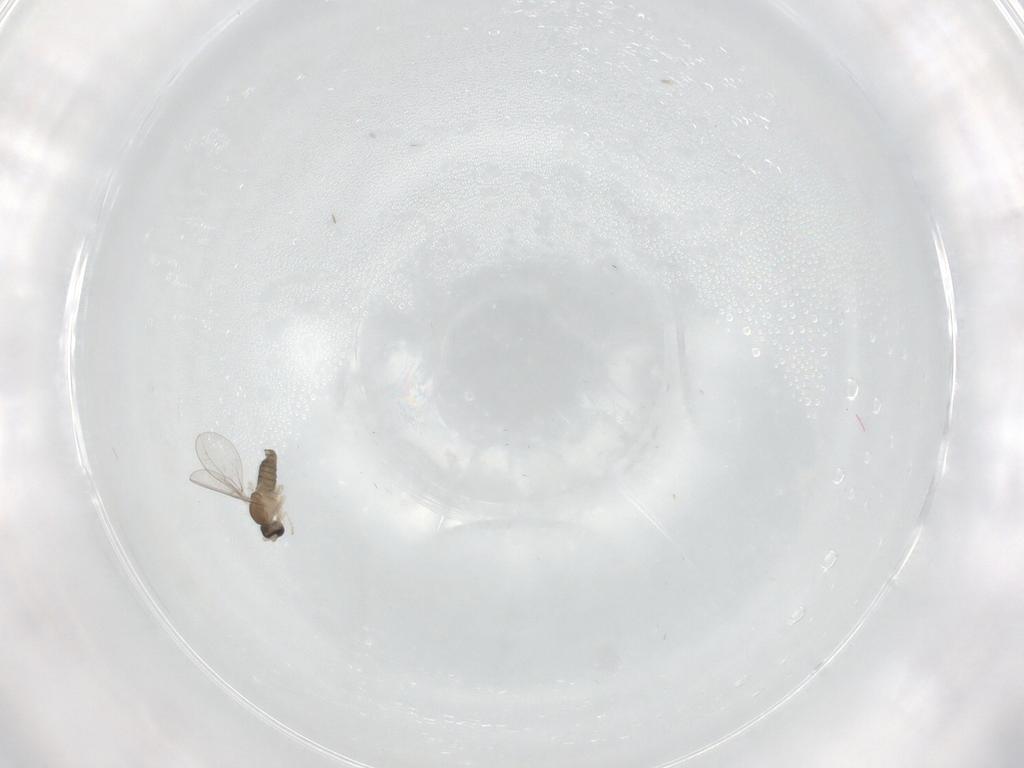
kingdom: Animalia
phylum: Arthropoda
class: Insecta
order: Diptera
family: Cecidomyiidae
